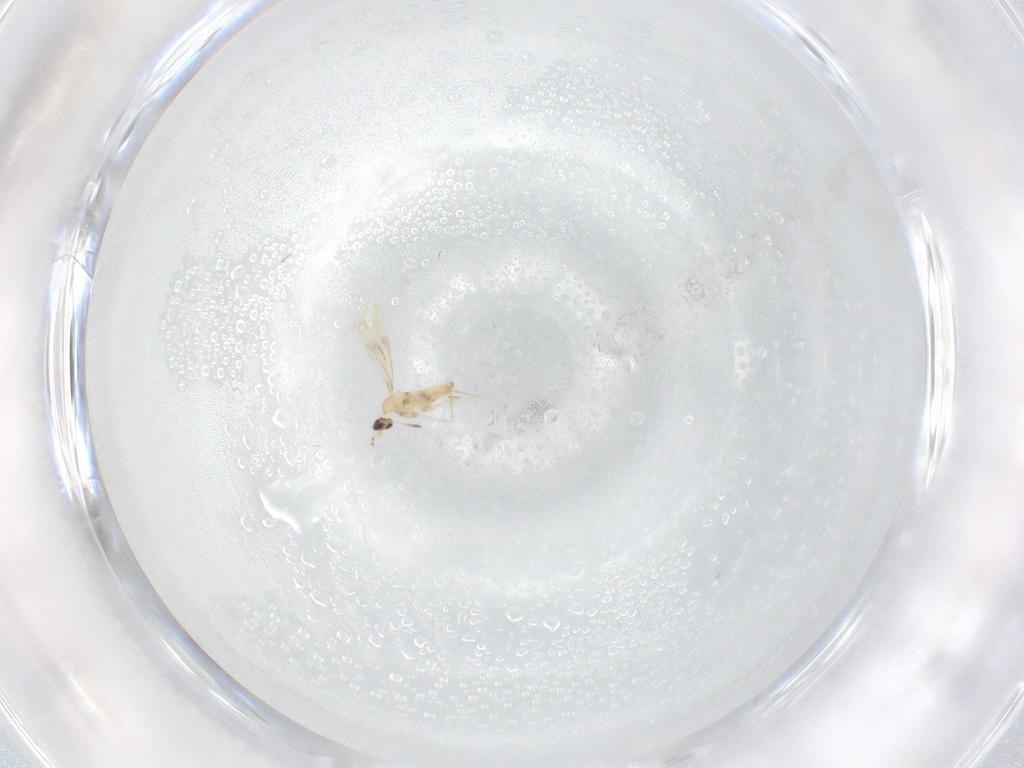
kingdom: Animalia
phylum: Arthropoda
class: Insecta
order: Diptera
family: Cecidomyiidae
